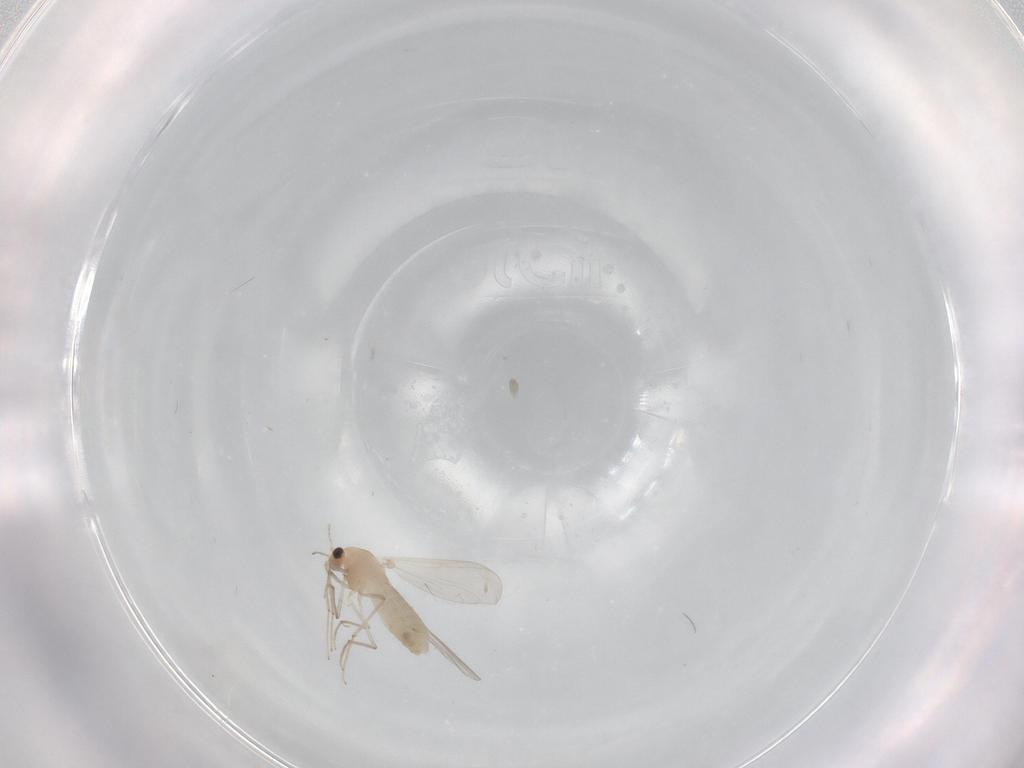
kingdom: Animalia
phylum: Arthropoda
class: Insecta
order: Diptera
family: Chironomidae
